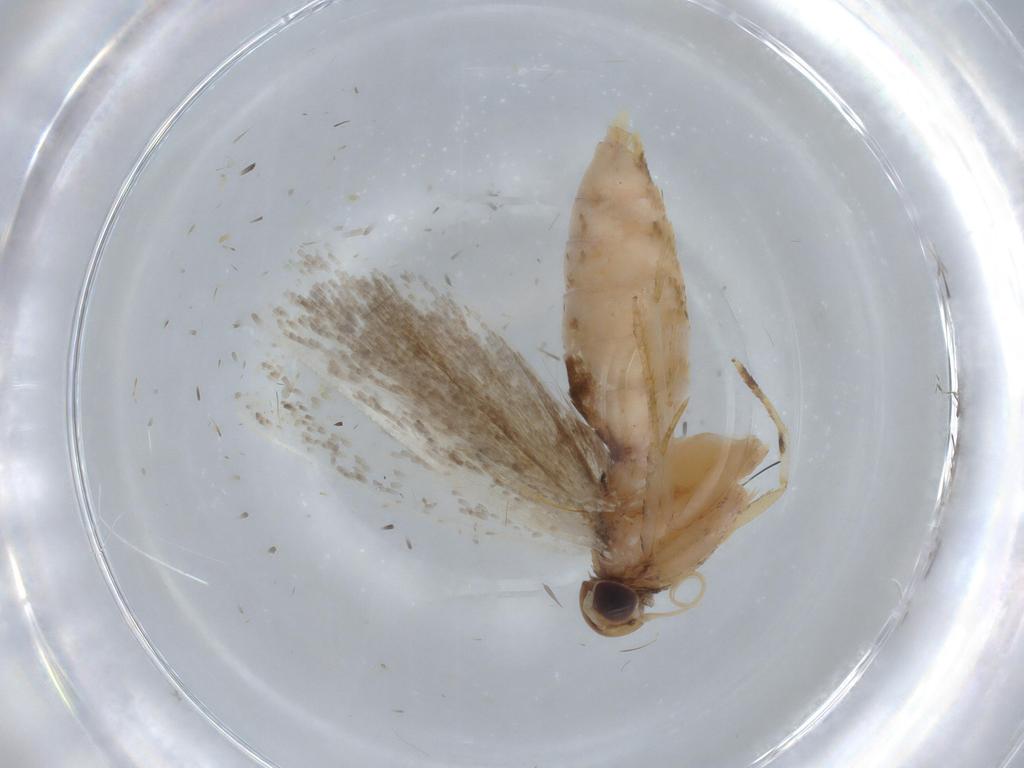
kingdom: Animalia
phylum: Arthropoda
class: Insecta
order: Lepidoptera
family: Gelechiidae
